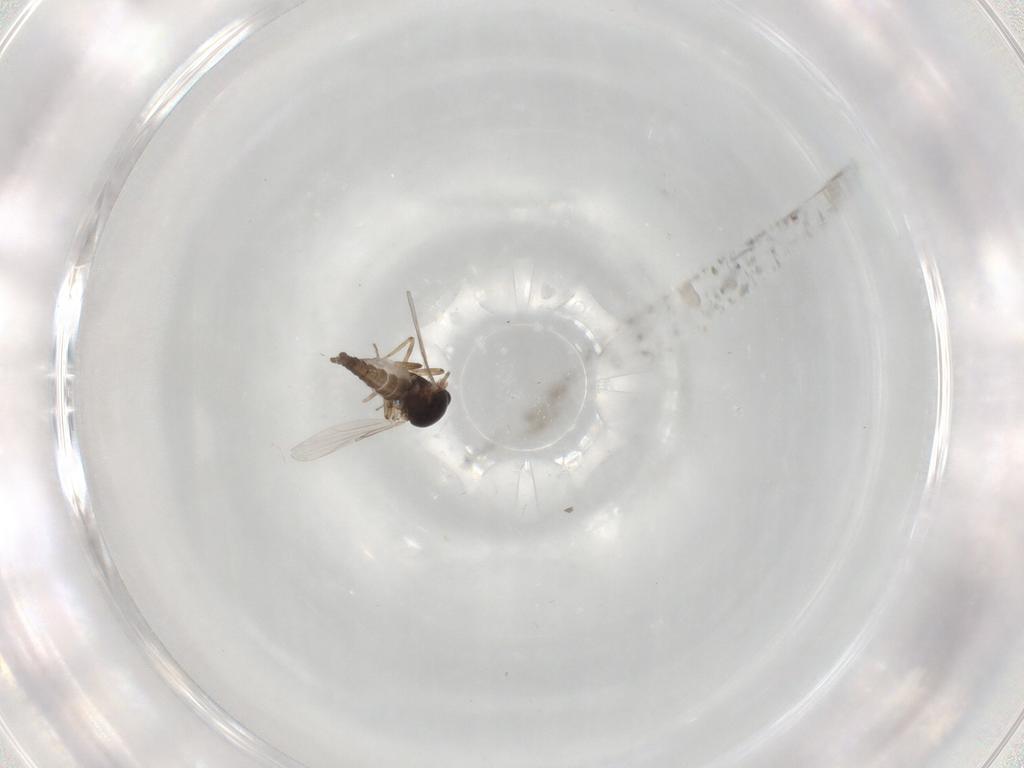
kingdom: Animalia
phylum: Arthropoda
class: Insecta
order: Diptera
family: Phoridae
